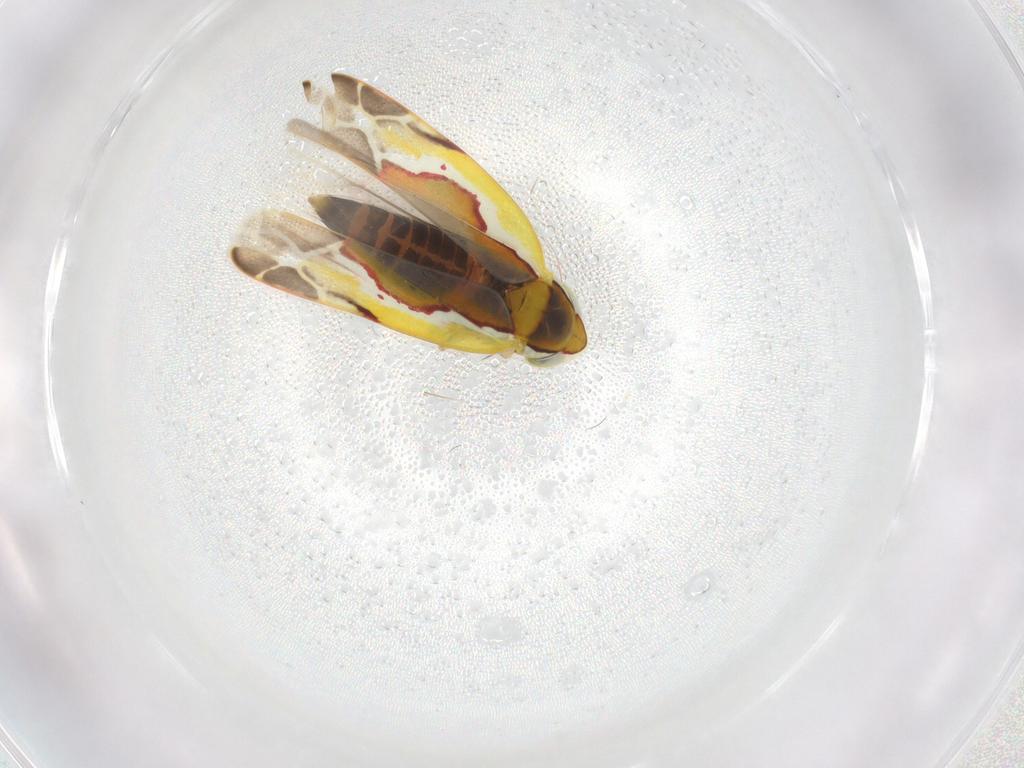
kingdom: Animalia
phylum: Arthropoda
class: Insecta
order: Hemiptera
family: Cicadellidae
